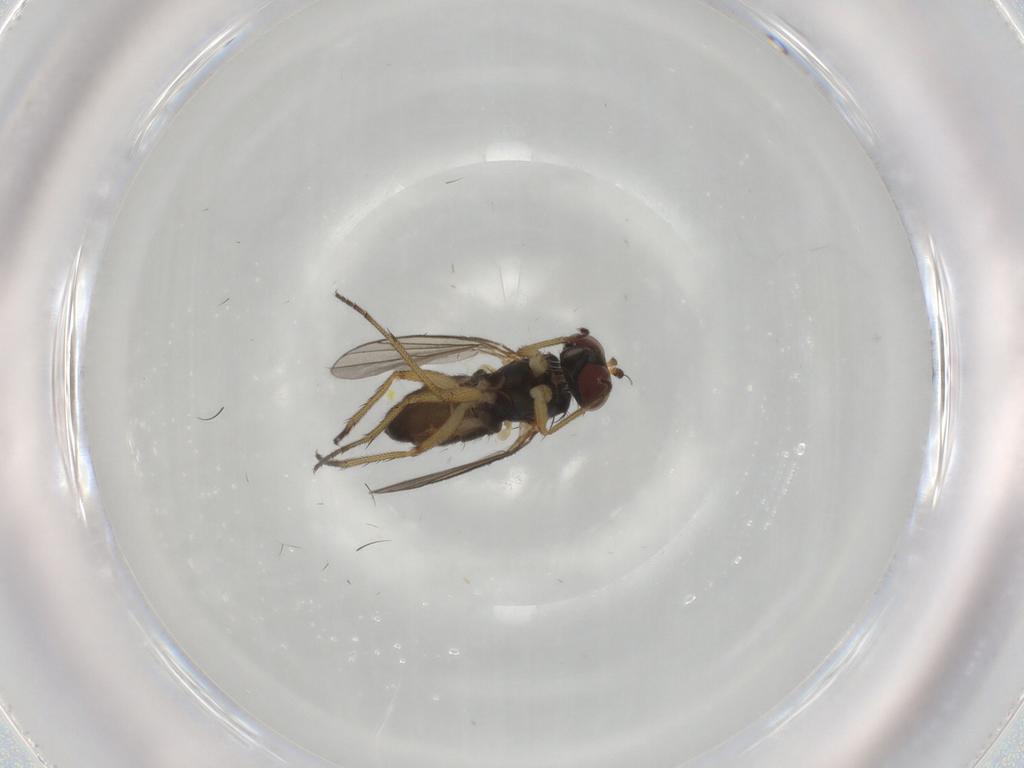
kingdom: Animalia
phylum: Arthropoda
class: Insecta
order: Diptera
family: Dolichopodidae
